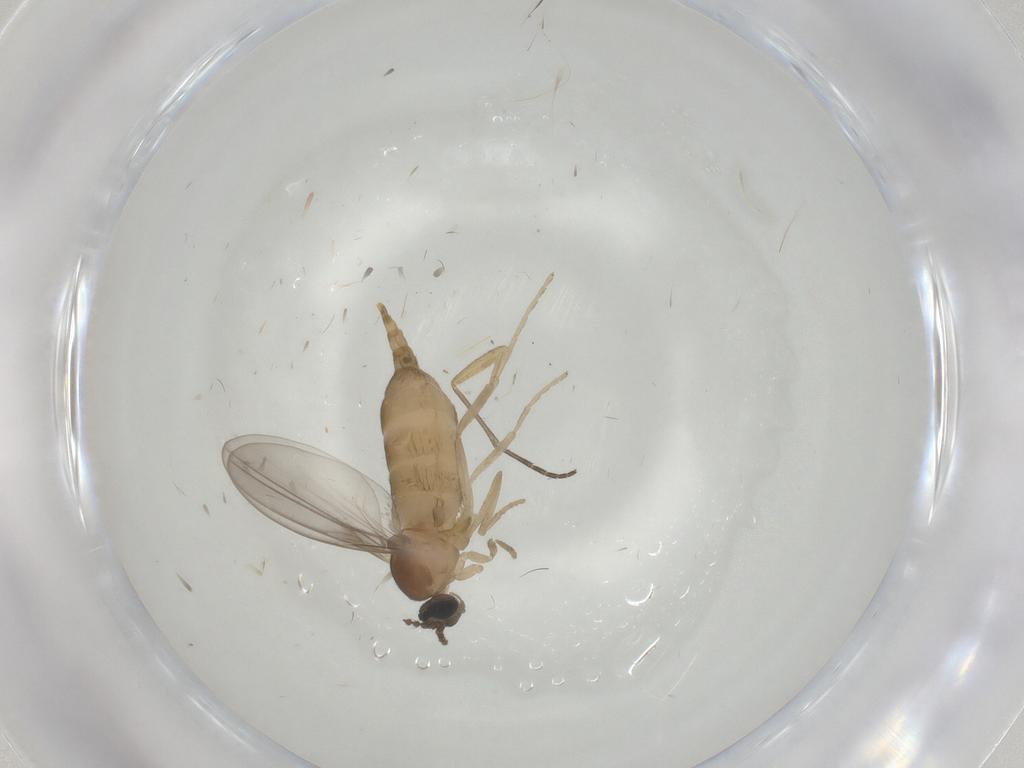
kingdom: Animalia
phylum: Arthropoda
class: Insecta
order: Diptera
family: Cecidomyiidae
